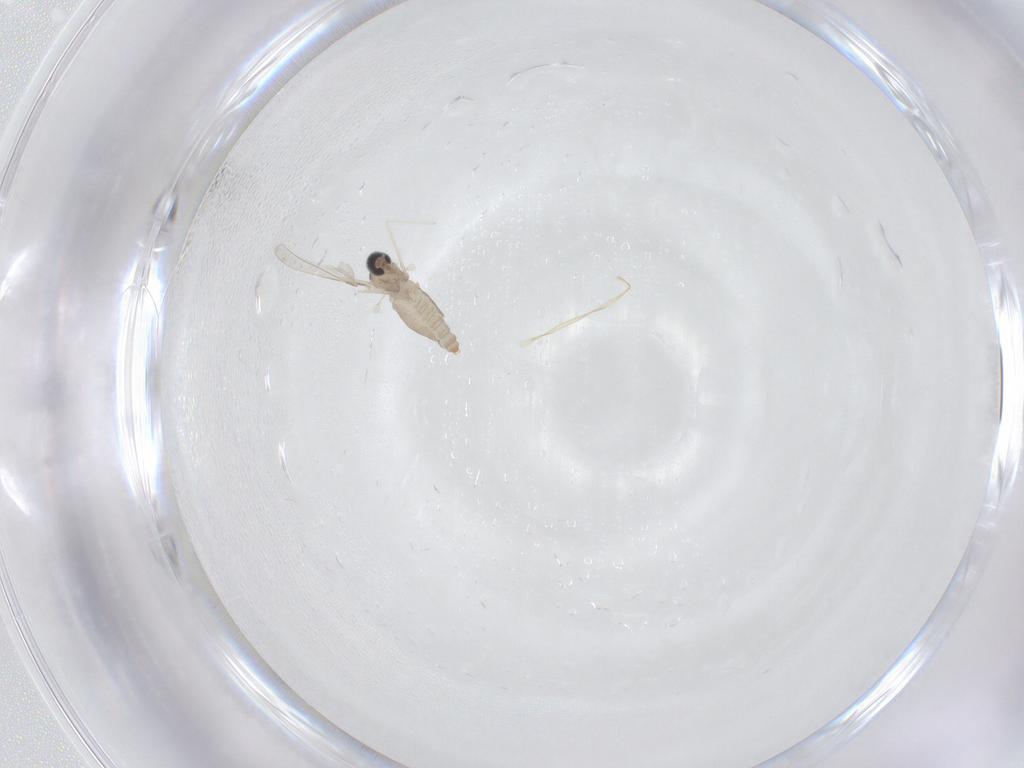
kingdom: Animalia
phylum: Arthropoda
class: Insecta
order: Diptera
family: Cecidomyiidae
